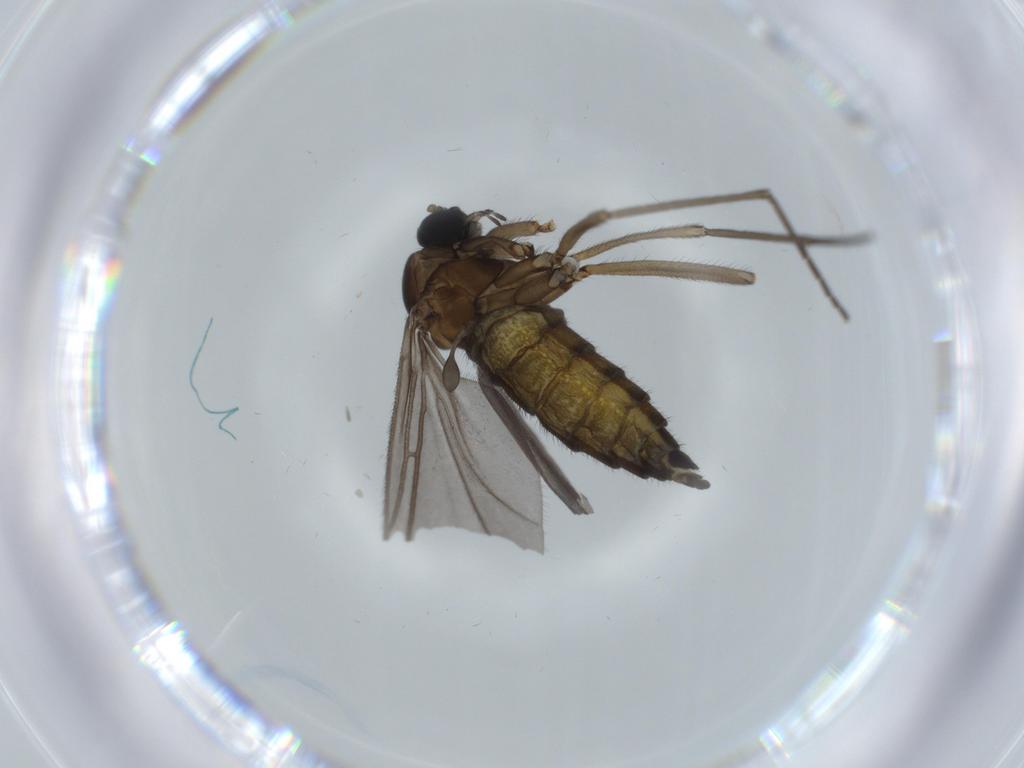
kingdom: Animalia
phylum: Arthropoda
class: Insecta
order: Diptera
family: Sciaridae
